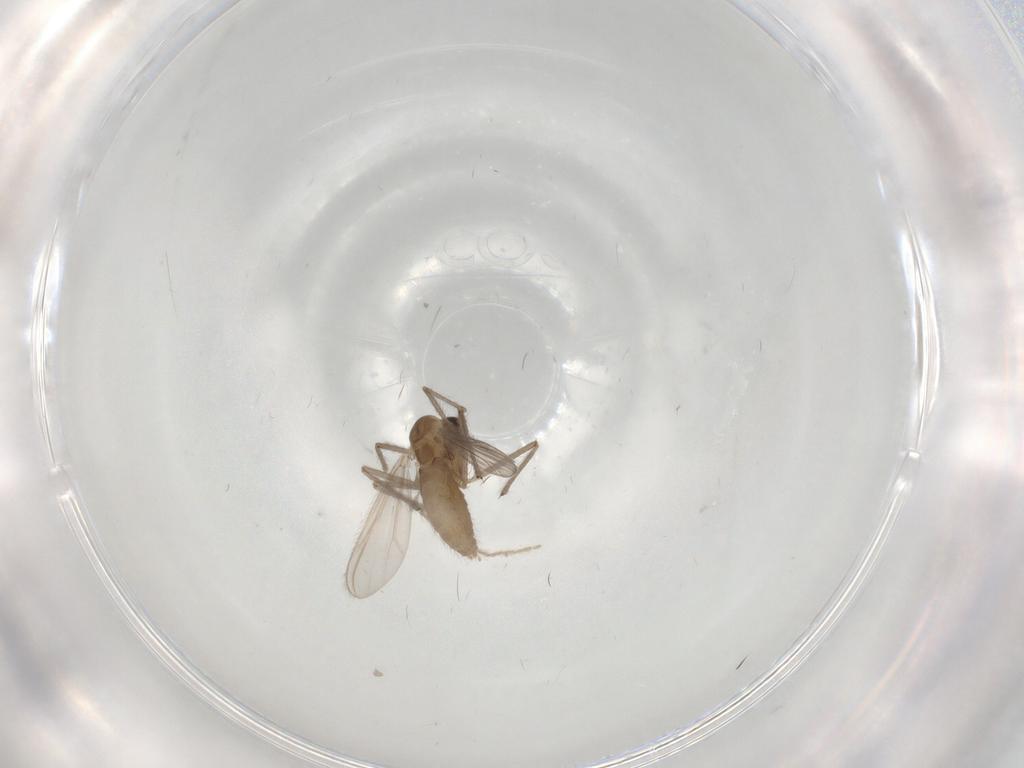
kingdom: Animalia
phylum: Arthropoda
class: Insecta
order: Diptera
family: Chironomidae
